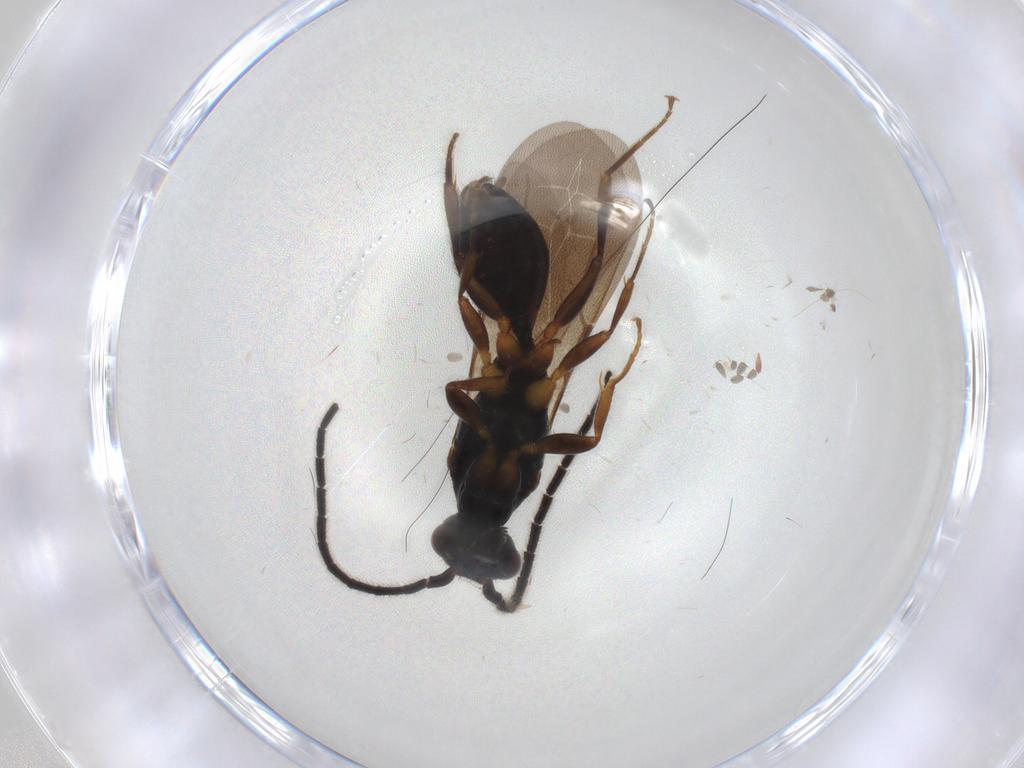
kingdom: Animalia
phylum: Arthropoda
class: Insecta
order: Hymenoptera
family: Bethylidae
